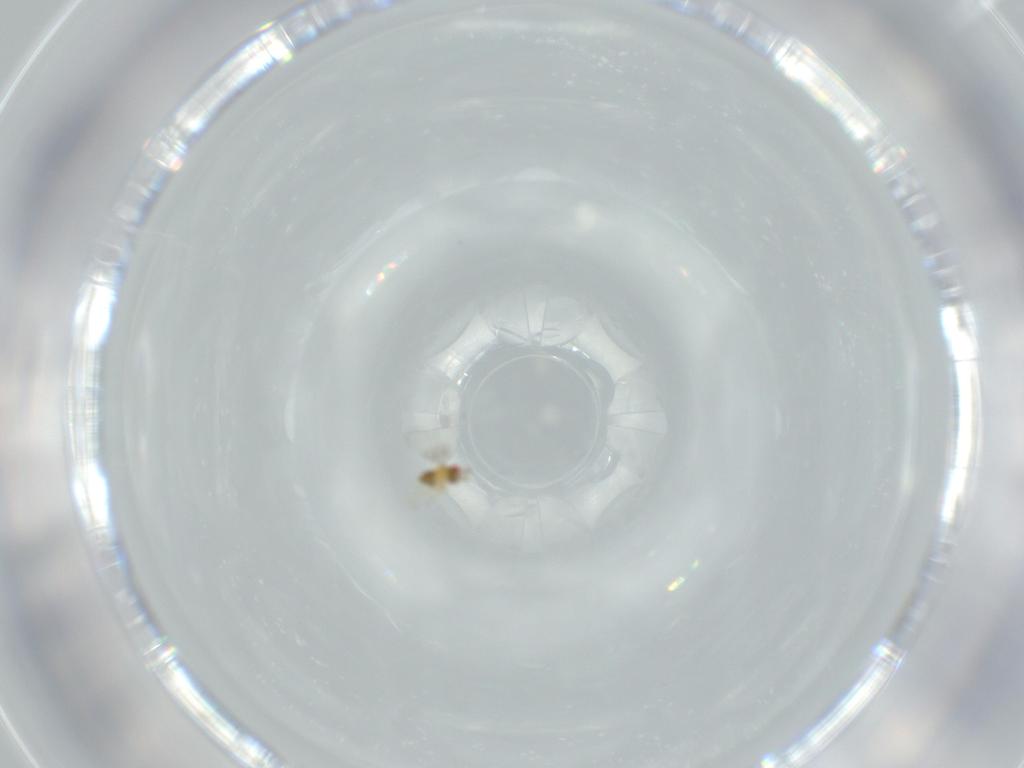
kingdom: Animalia
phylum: Arthropoda
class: Insecta
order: Hymenoptera
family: Trichogrammatidae
